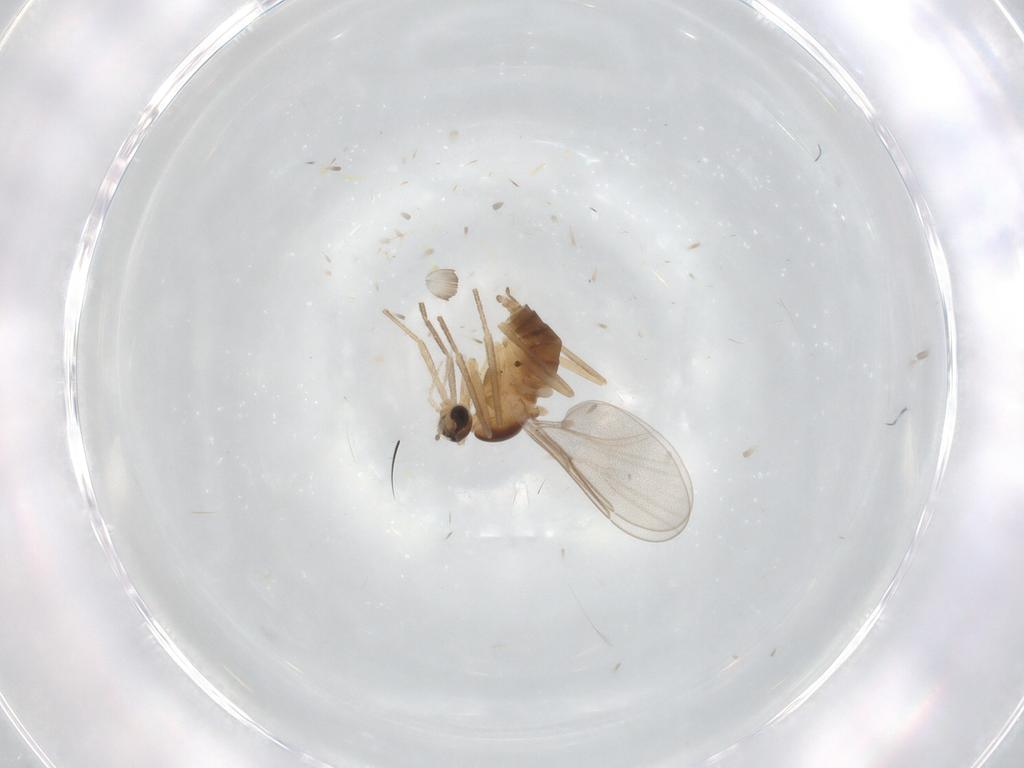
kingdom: Animalia
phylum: Arthropoda
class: Insecta
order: Diptera
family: Cecidomyiidae
